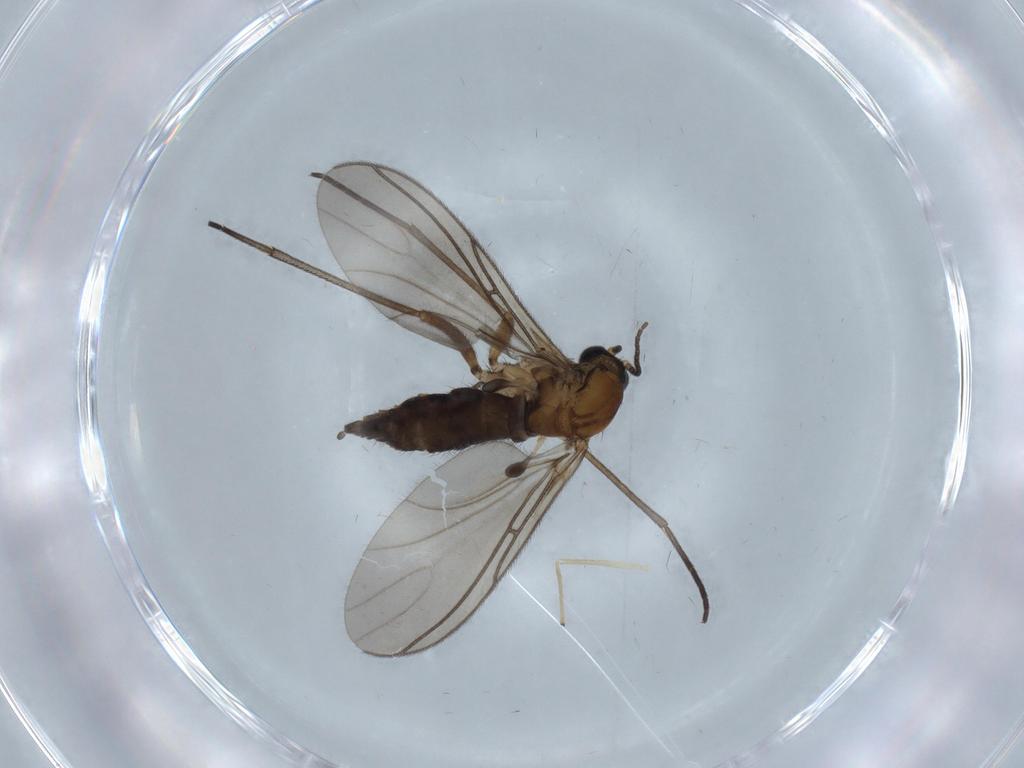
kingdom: Animalia
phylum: Arthropoda
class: Insecta
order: Diptera
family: Sciaridae
